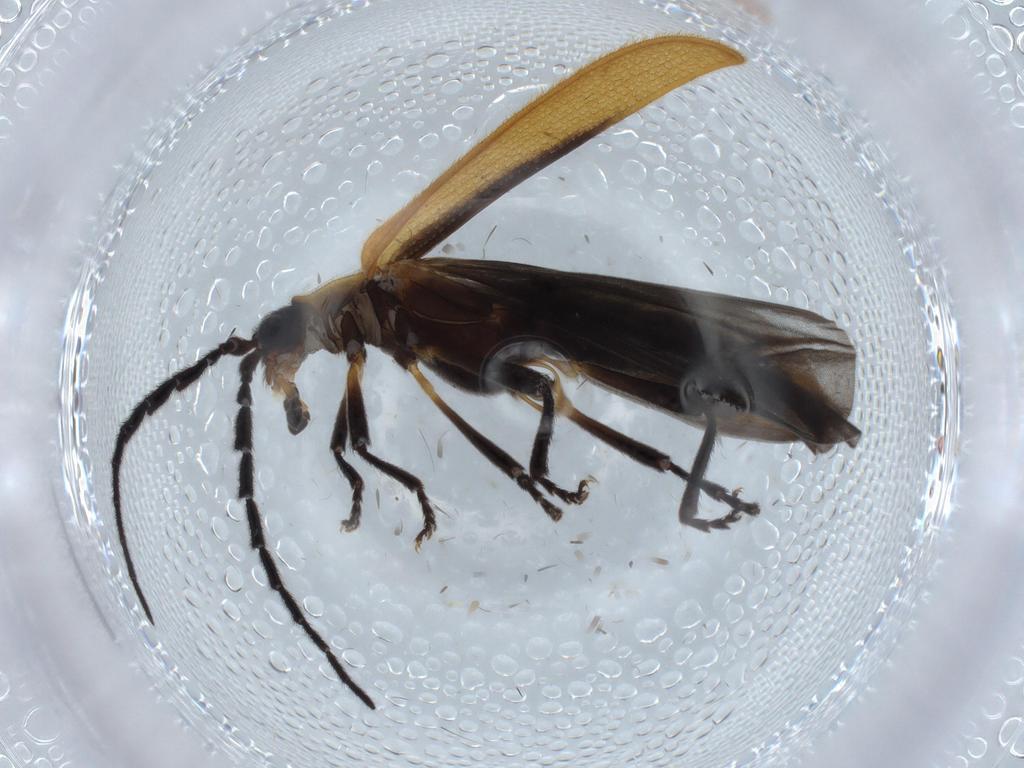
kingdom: Animalia
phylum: Arthropoda
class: Insecta
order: Coleoptera
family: Lycidae
